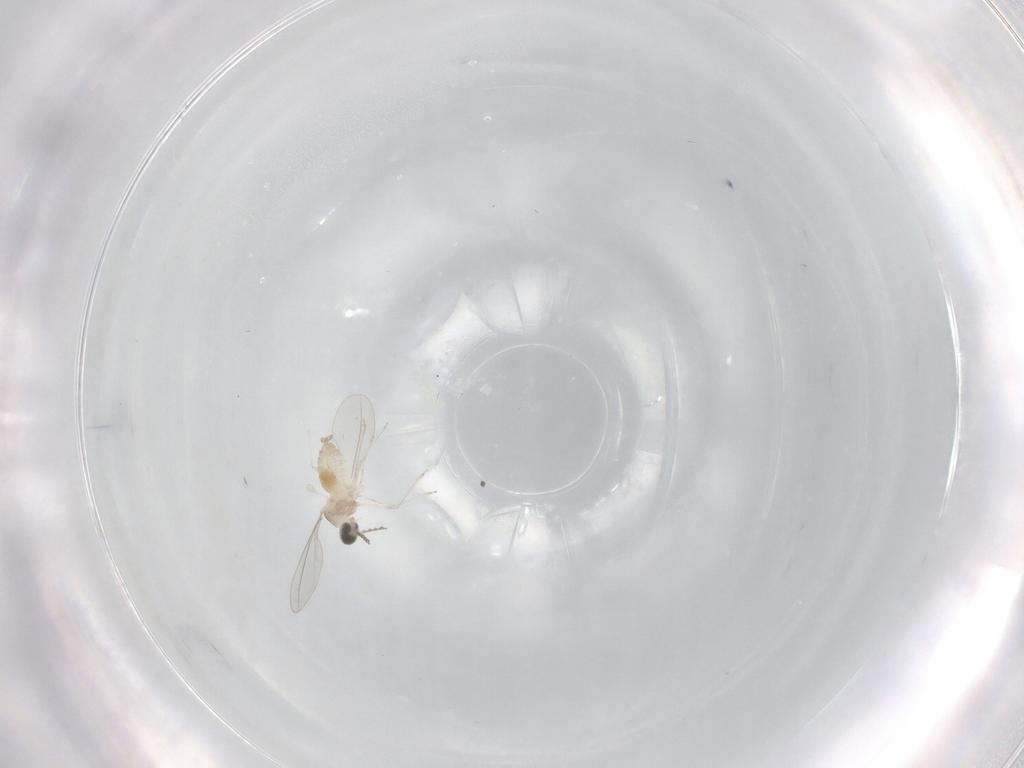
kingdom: Animalia
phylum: Arthropoda
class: Insecta
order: Diptera
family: Cecidomyiidae
